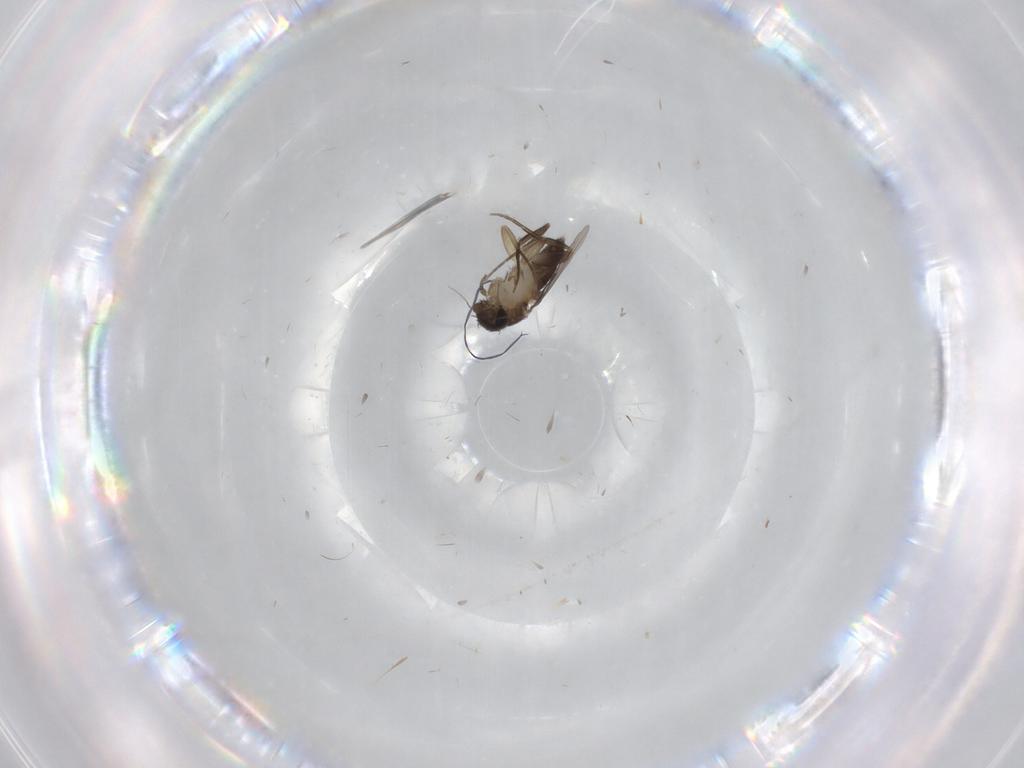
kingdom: Animalia
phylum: Arthropoda
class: Insecta
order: Diptera
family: Phoridae
